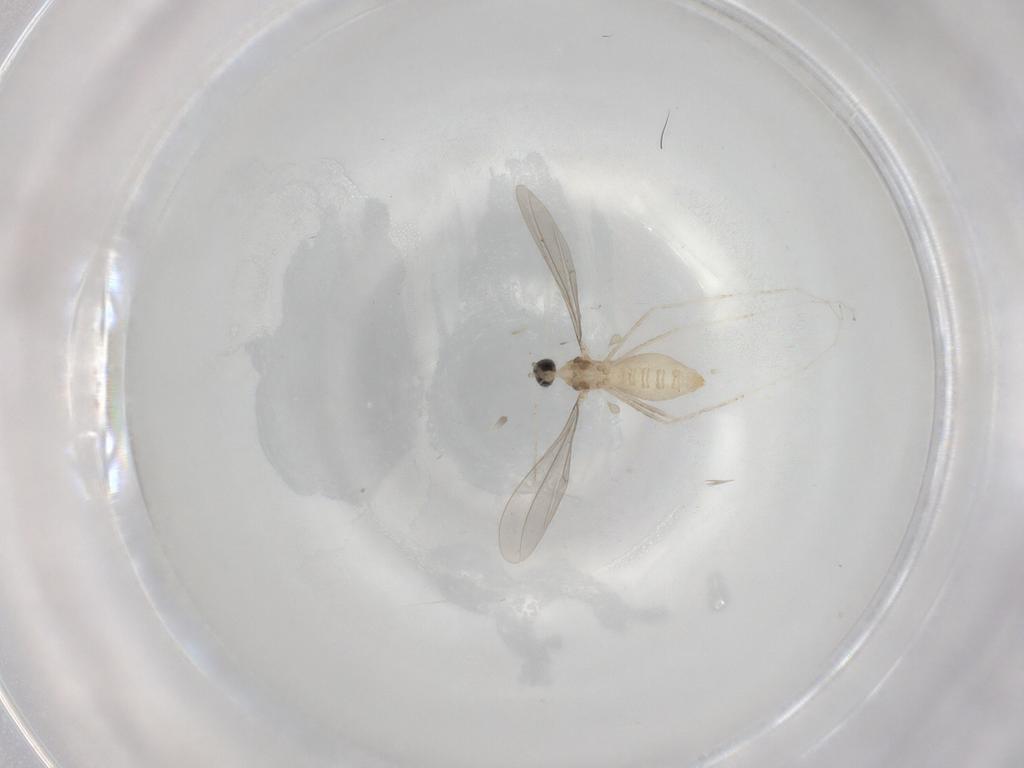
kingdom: Animalia
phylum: Arthropoda
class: Insecta
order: Diptera
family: Cecidomyiidae
